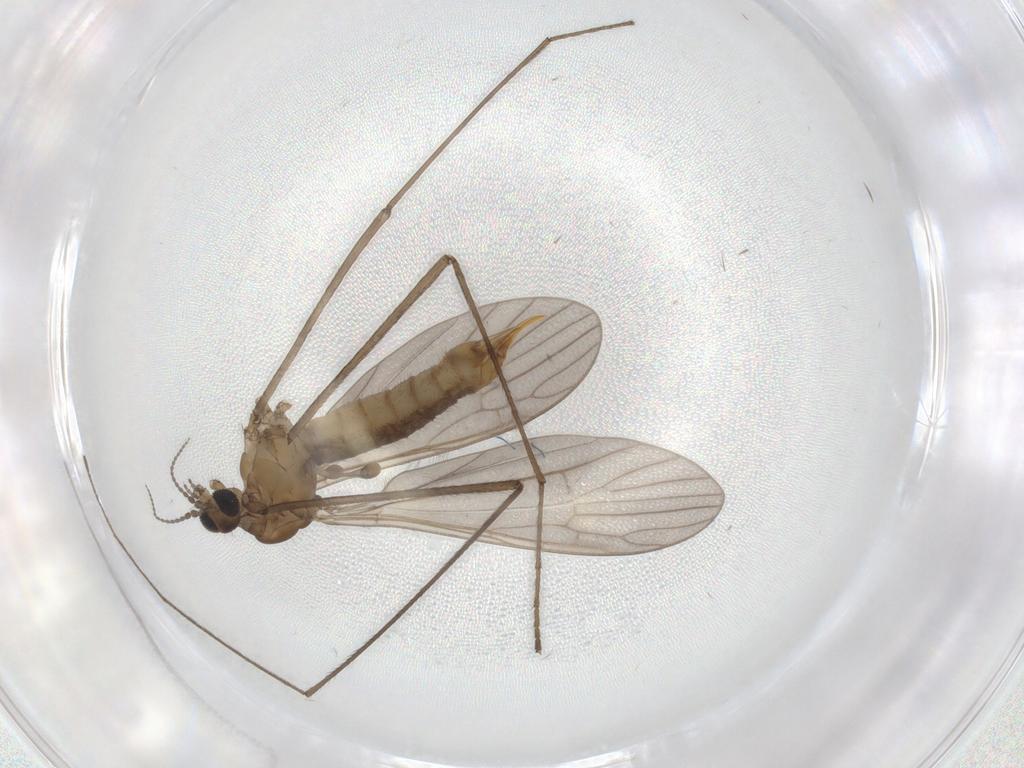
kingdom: Animalia
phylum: Arthropoda
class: Insecta
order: Diptera
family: Limoniidae
